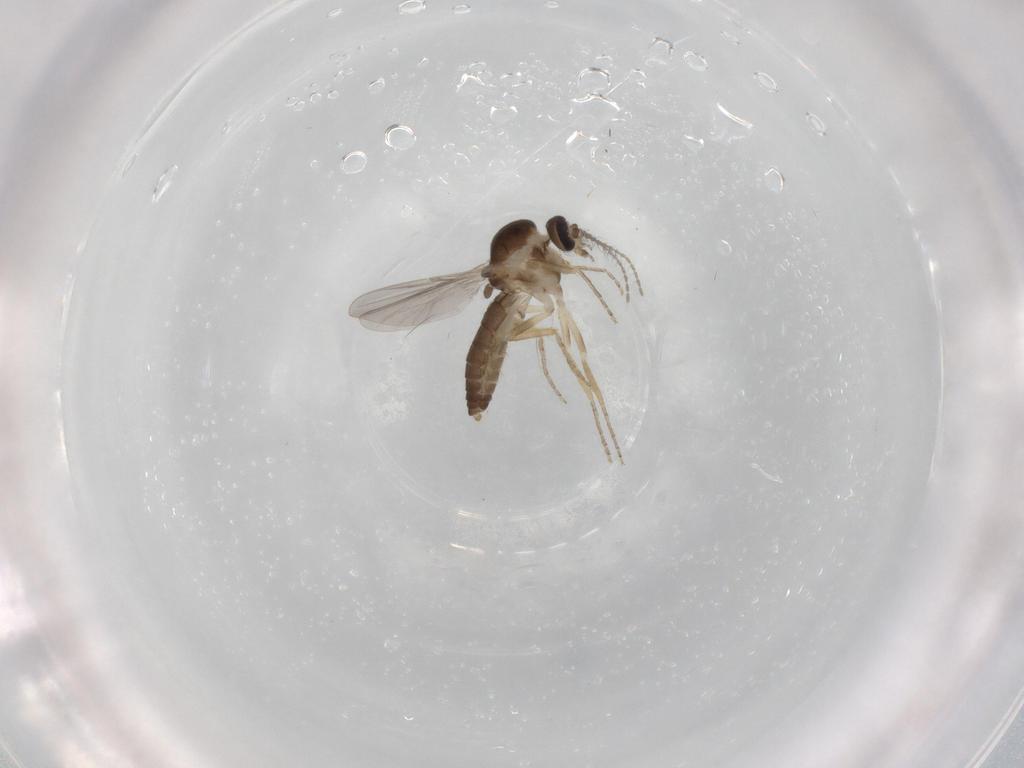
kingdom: Animalia
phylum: Arthropoda
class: Insecta
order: Diptera
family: Ceratopogonidae
